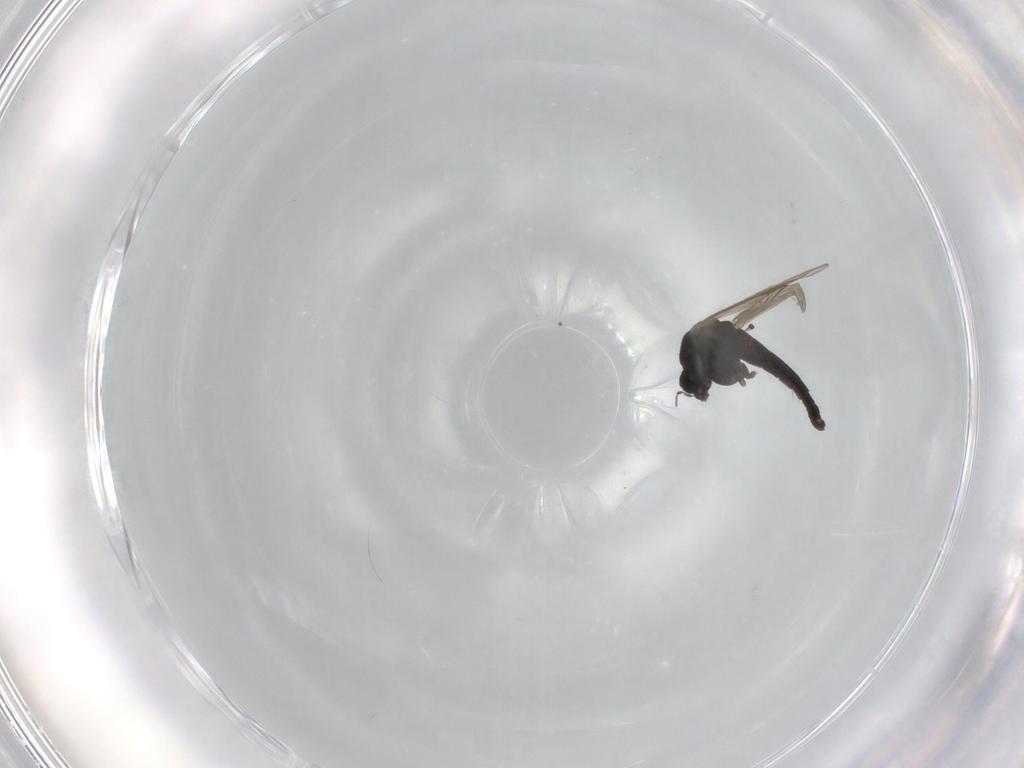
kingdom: Animalia
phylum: Arthropoda
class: Insecta
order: Diptera
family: Chironomidae
